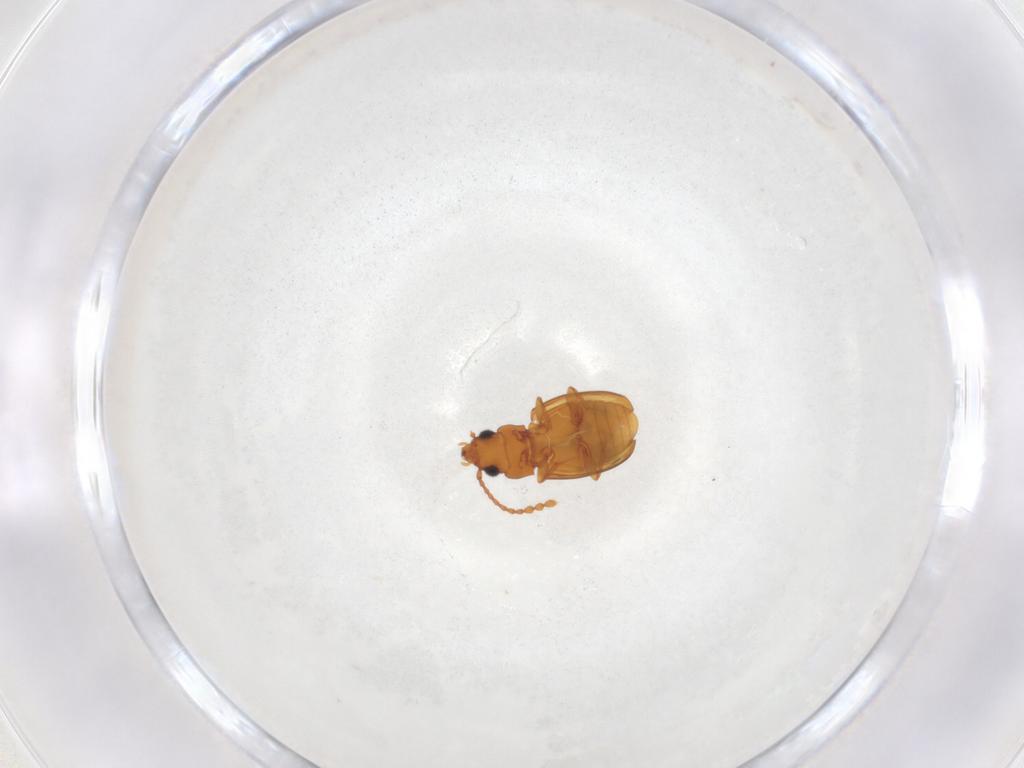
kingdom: Animalia
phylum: Arthropoda
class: Insecta
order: Coleoptera
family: Laemophloeidae
